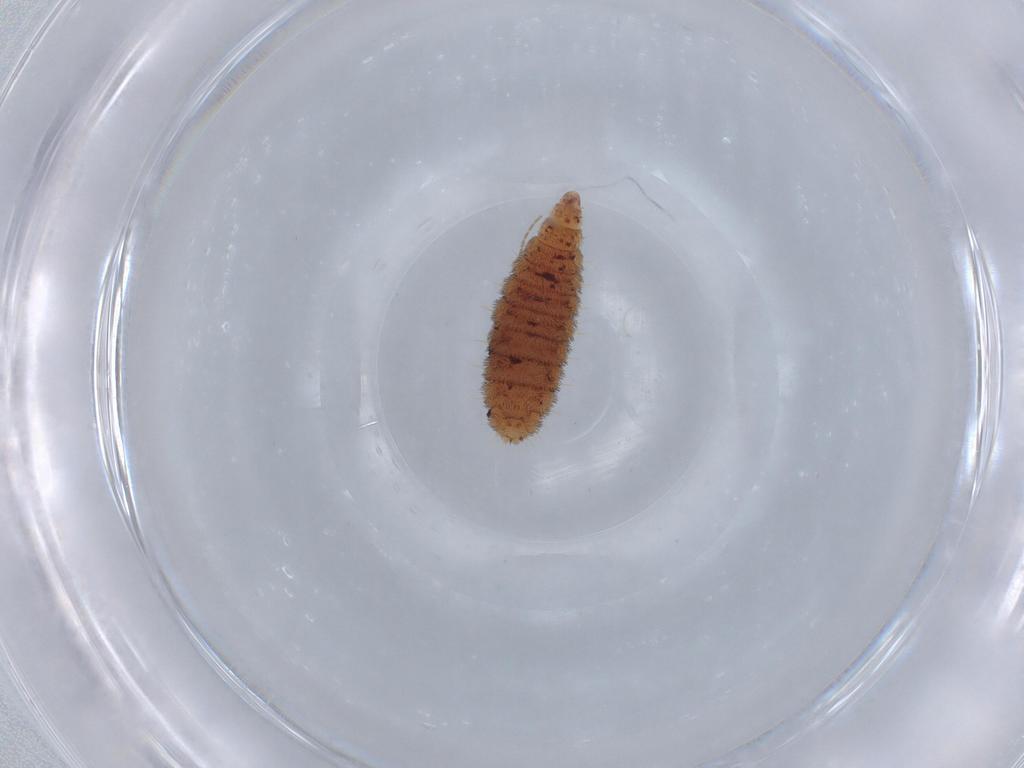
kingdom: Animalia
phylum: Arthropoda
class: Insecta
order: Hymenoptera
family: Figitidae
